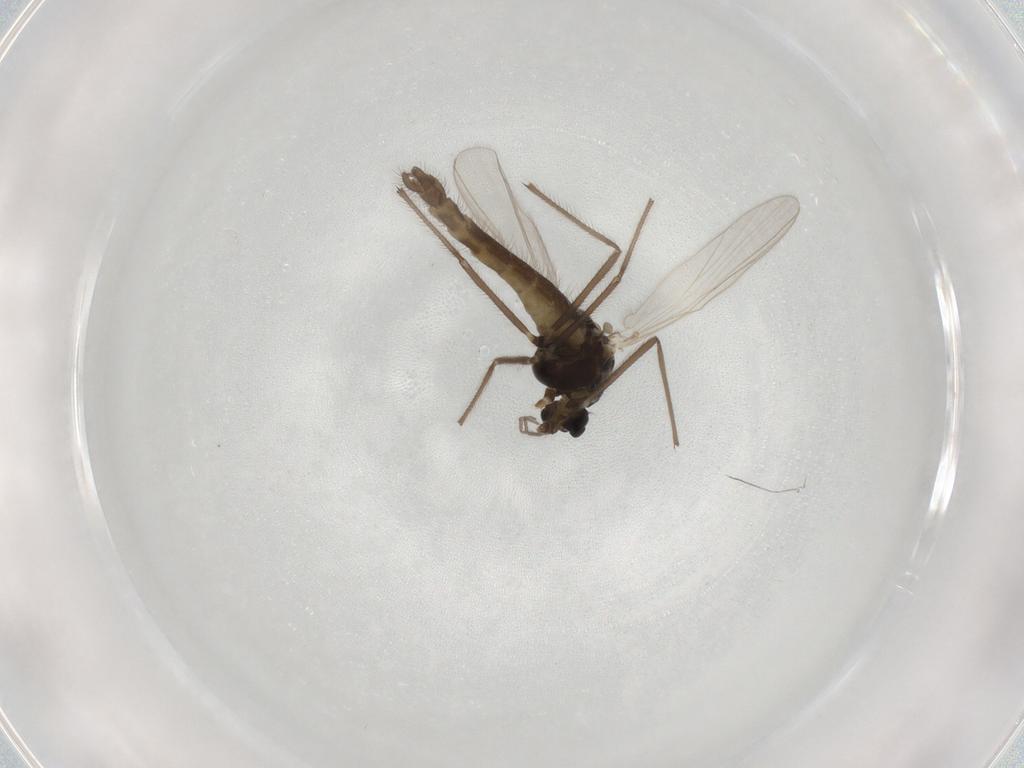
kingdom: Animalia
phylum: Arthropoda
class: Insecta
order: Diptera
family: Chironomidae
